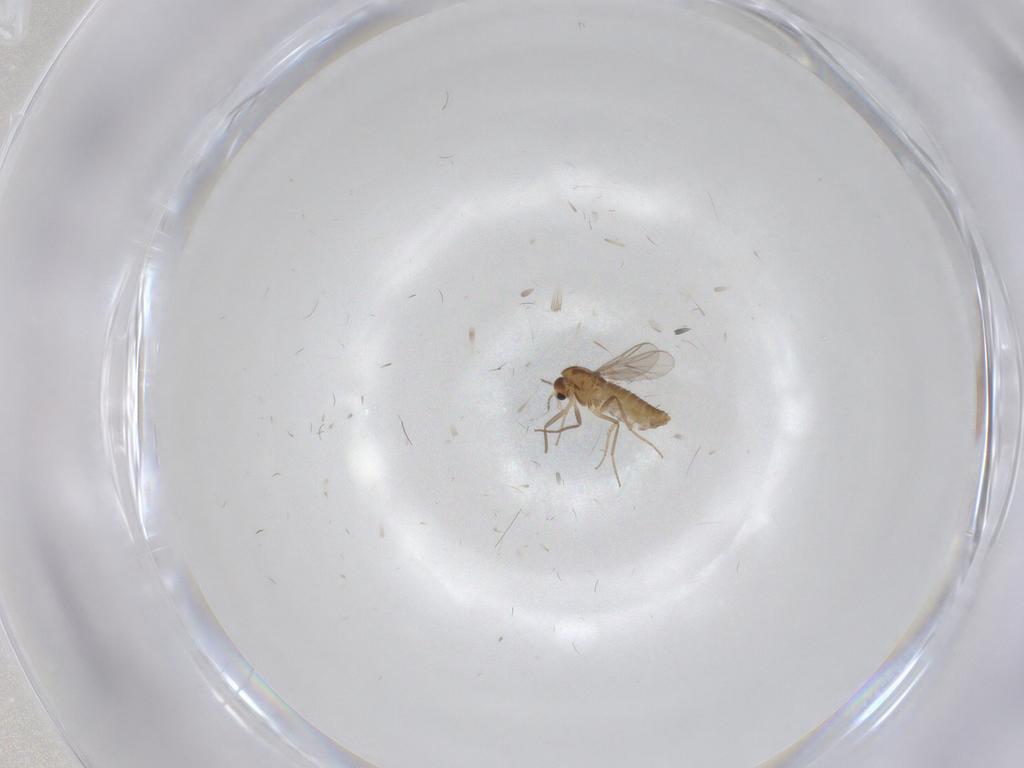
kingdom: Animalia
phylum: Arthropoda
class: Insecta
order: Diptera
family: Chironomidae
